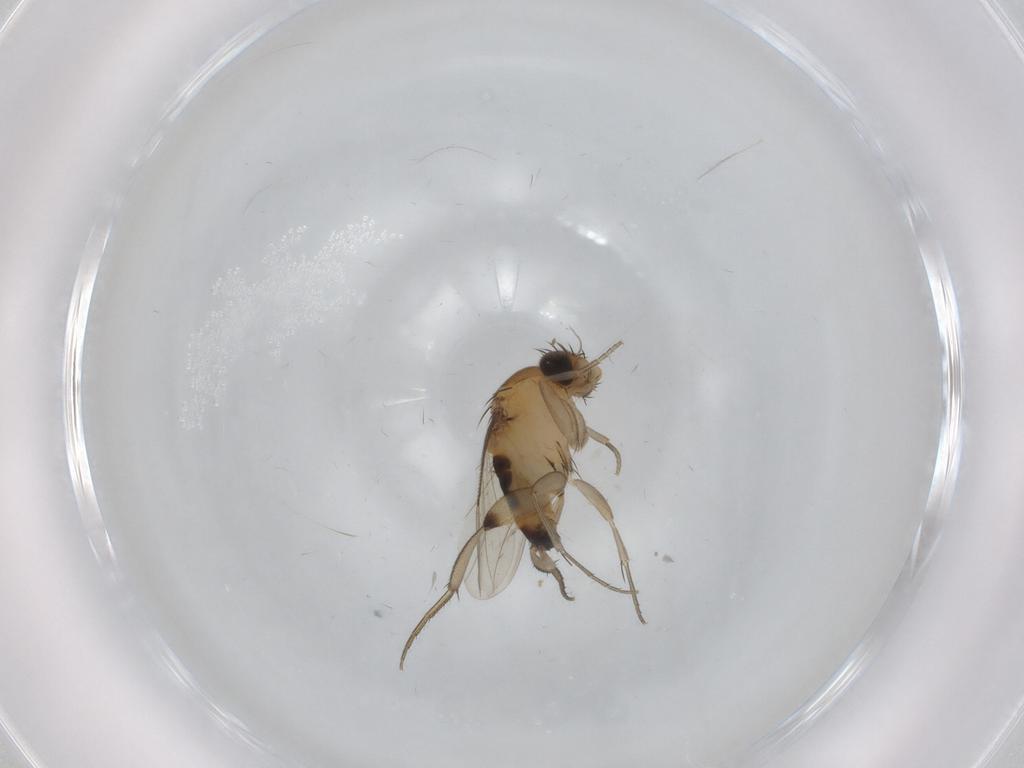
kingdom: Animalia
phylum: Arthropoda
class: Insecta
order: Diptera
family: Phoridae
